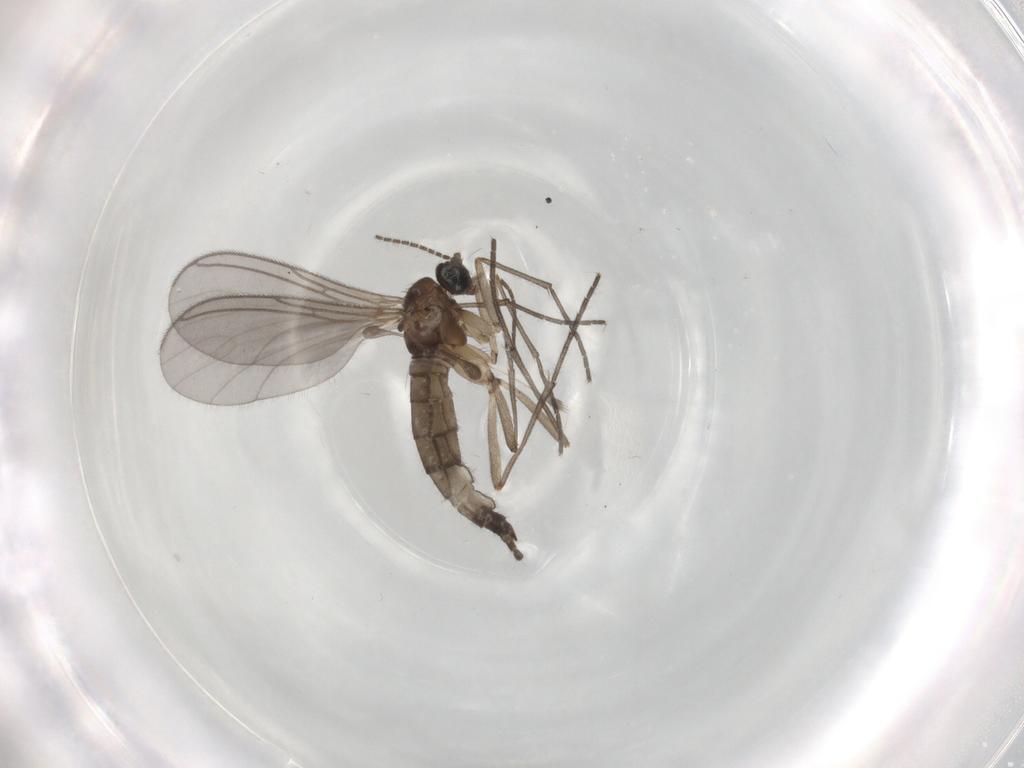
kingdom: Animalia
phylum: Arthropoda
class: Insecta
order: Diptera
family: Sciaridae
